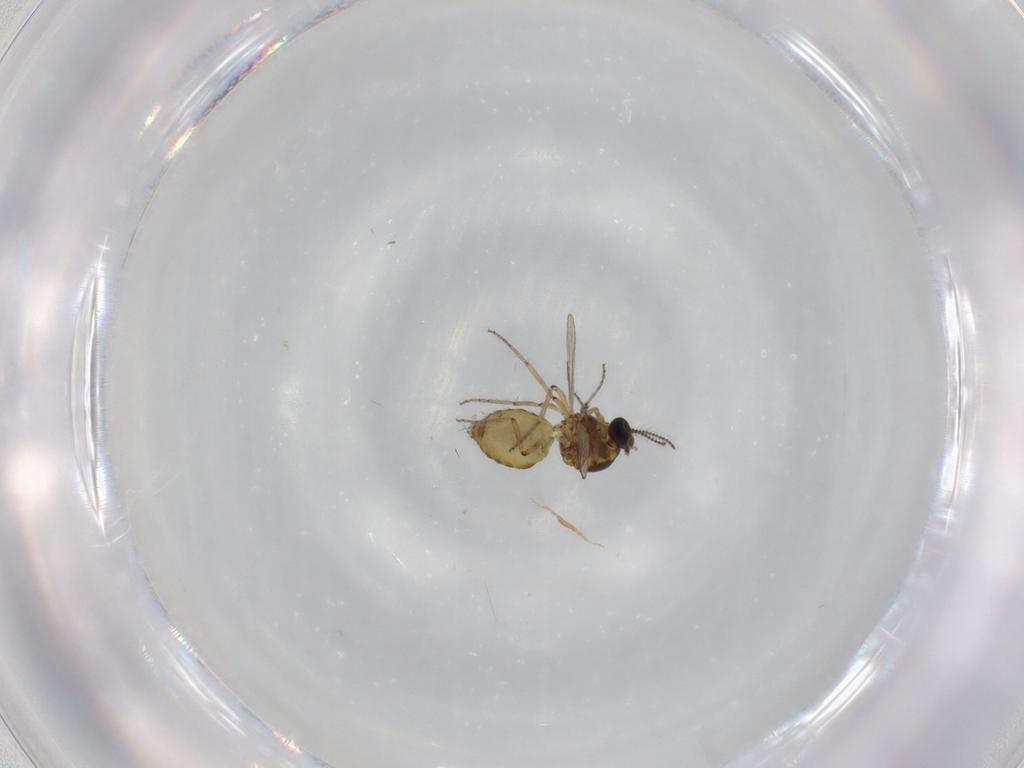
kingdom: Animalia
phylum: Arthropoda
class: Insecta
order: Diptera
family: Ceratopogonidae
